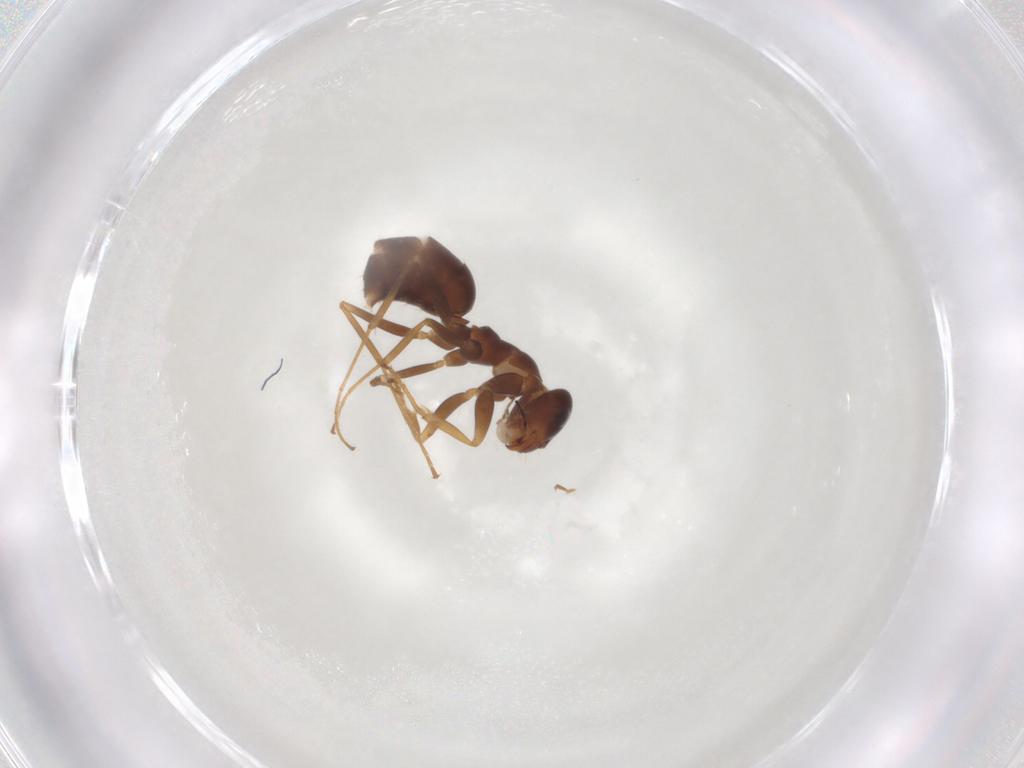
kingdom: Animalia
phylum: Arthropoda
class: Insecta
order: Hymenoptera
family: Formicidae
